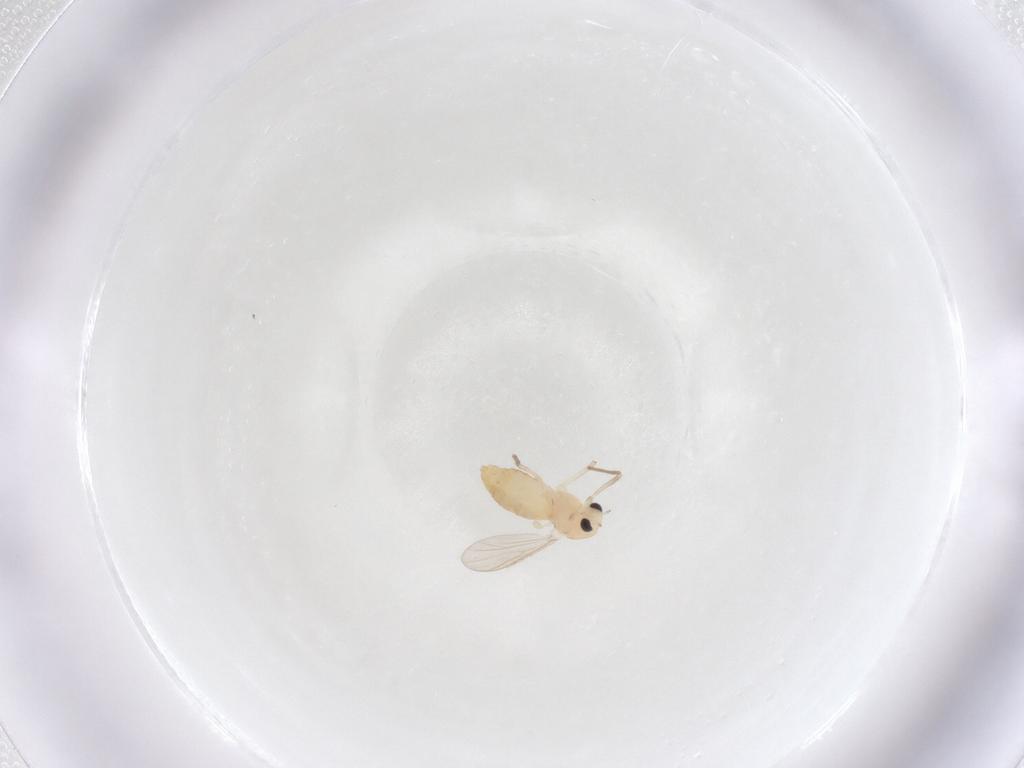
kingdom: Animalia
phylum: Arthropoda
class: Insecta
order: Diptera
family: Chironomidae
